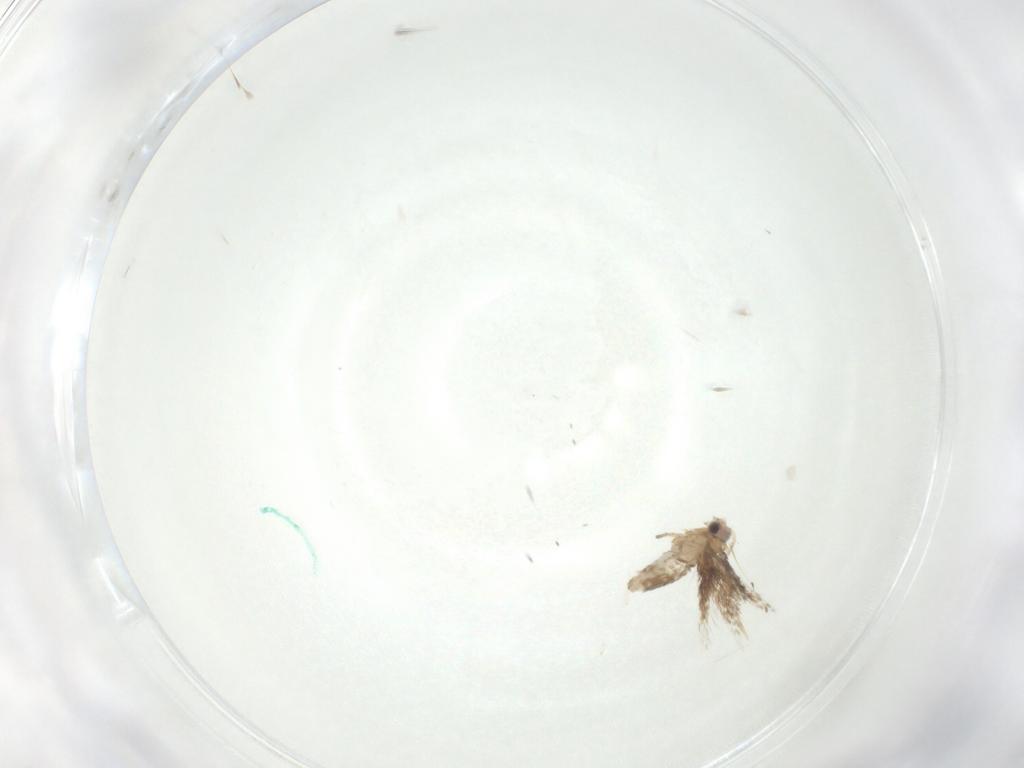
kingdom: Animalia
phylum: Arthropoda
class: Insecta
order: Lepidoptera
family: Nepticulidae
